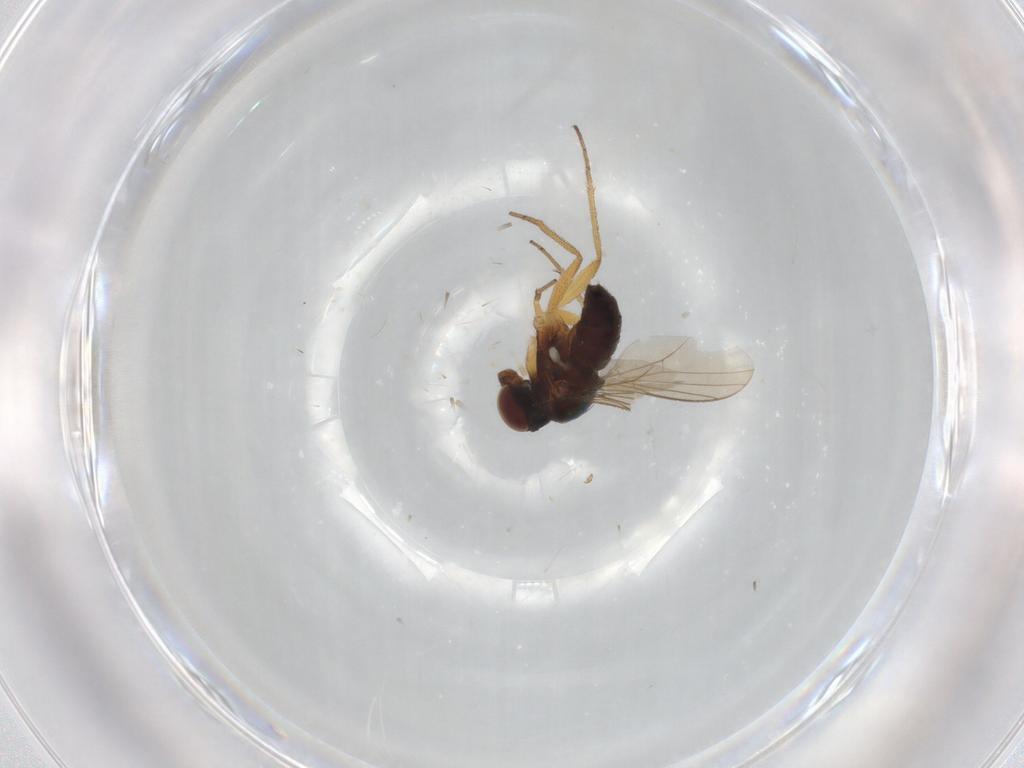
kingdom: Animalia
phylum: Arthropoda
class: Insecta
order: Diptera
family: Dolichopodidae
